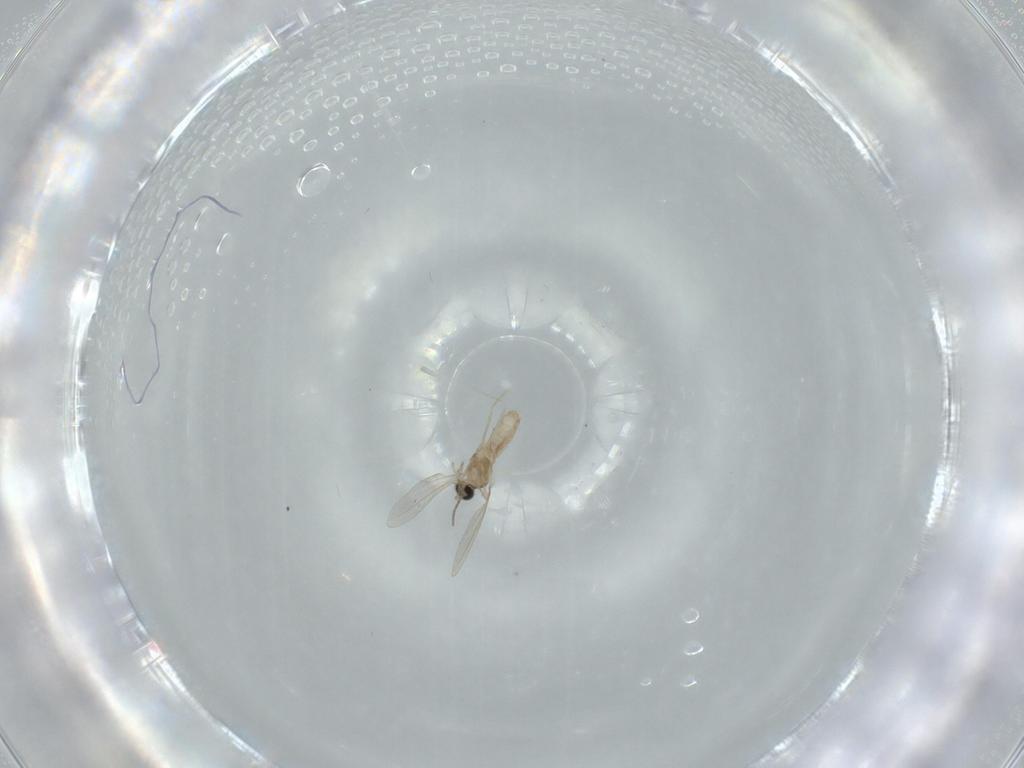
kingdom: Animalia
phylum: Arthropoda
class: Insecta
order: Diptera
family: Cecidomyiidae
